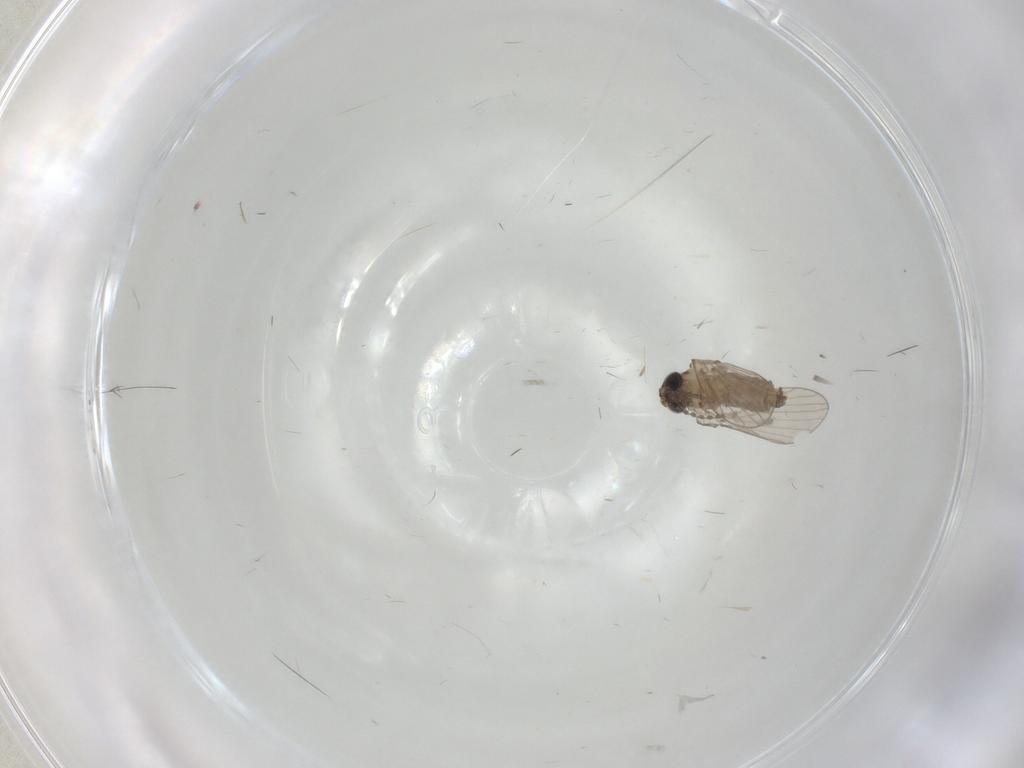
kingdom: Animalia
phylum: Arthropoda
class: Insecta
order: Diptera
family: Psychodidae
